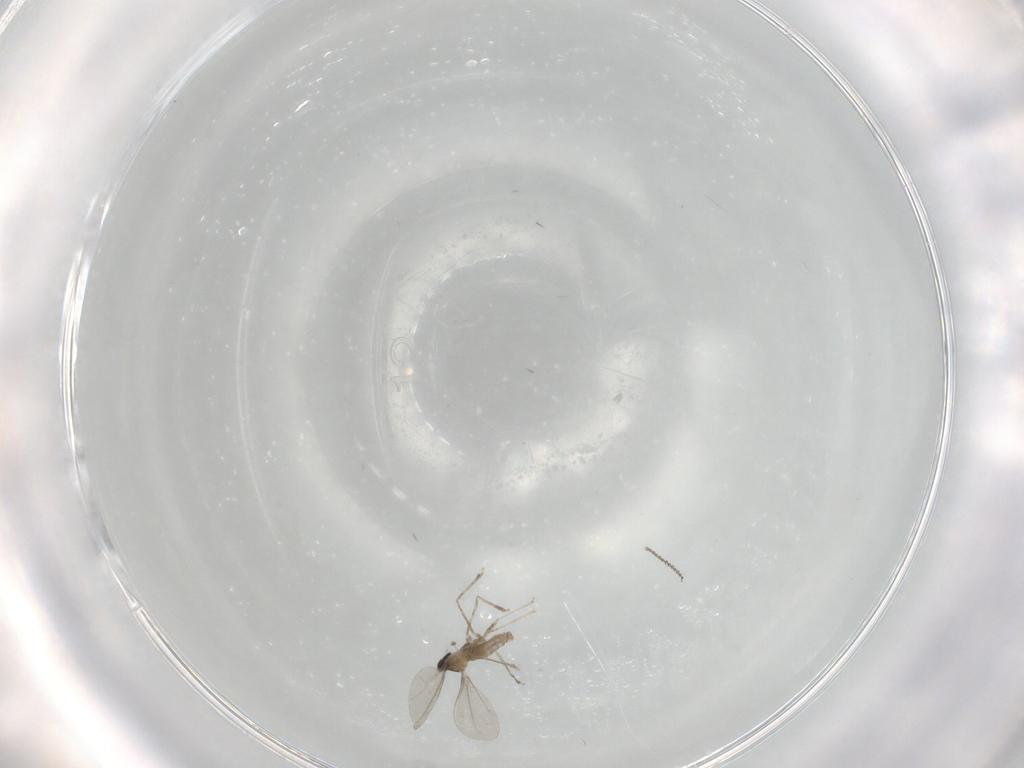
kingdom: Animalia
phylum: Arthropoda
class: Insecta
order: Diptera
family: Cecidomyiidae
